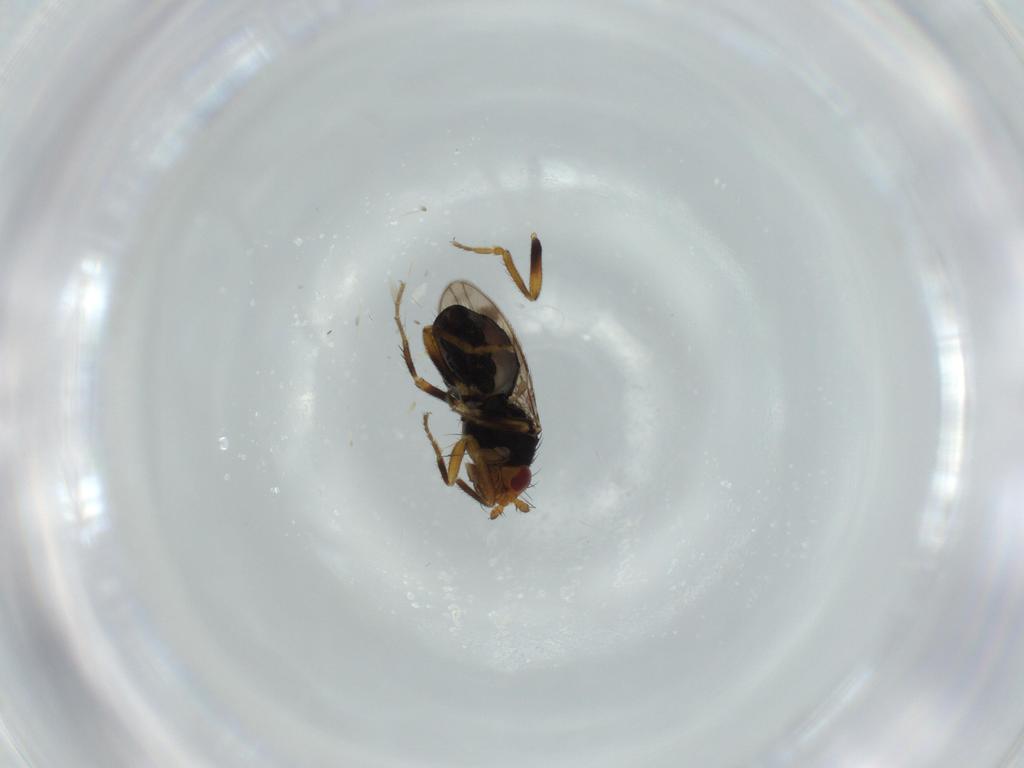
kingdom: Animalia
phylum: Arthropoda
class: Insecta
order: Diptera
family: Sphaeroceridae
